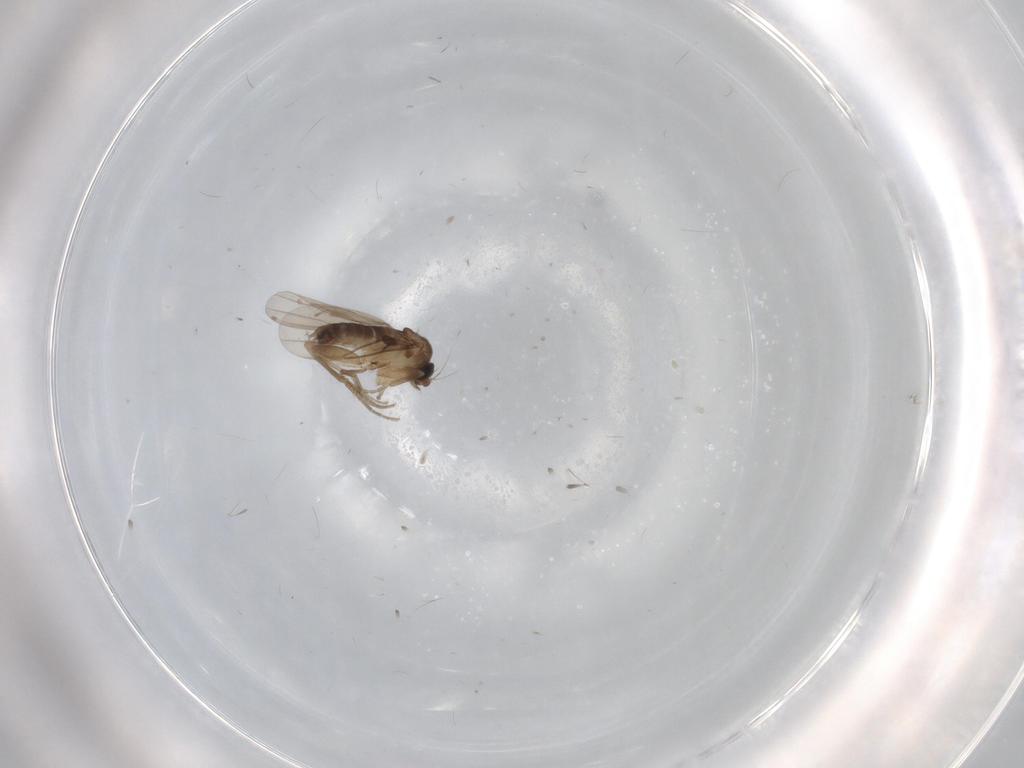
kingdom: Animalia
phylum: Arthropoda
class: Insecta
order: Diptera
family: Phoridae
